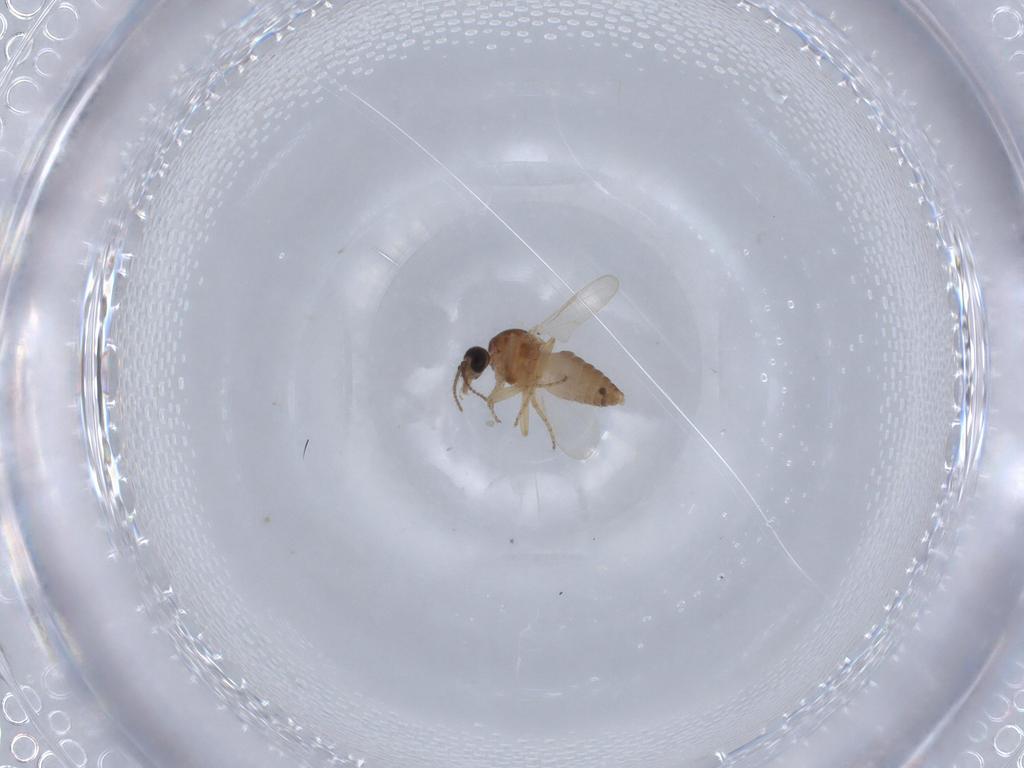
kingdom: Animalia
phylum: Arthropoda
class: Insecta
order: Diptera
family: Ceratopogonidae
